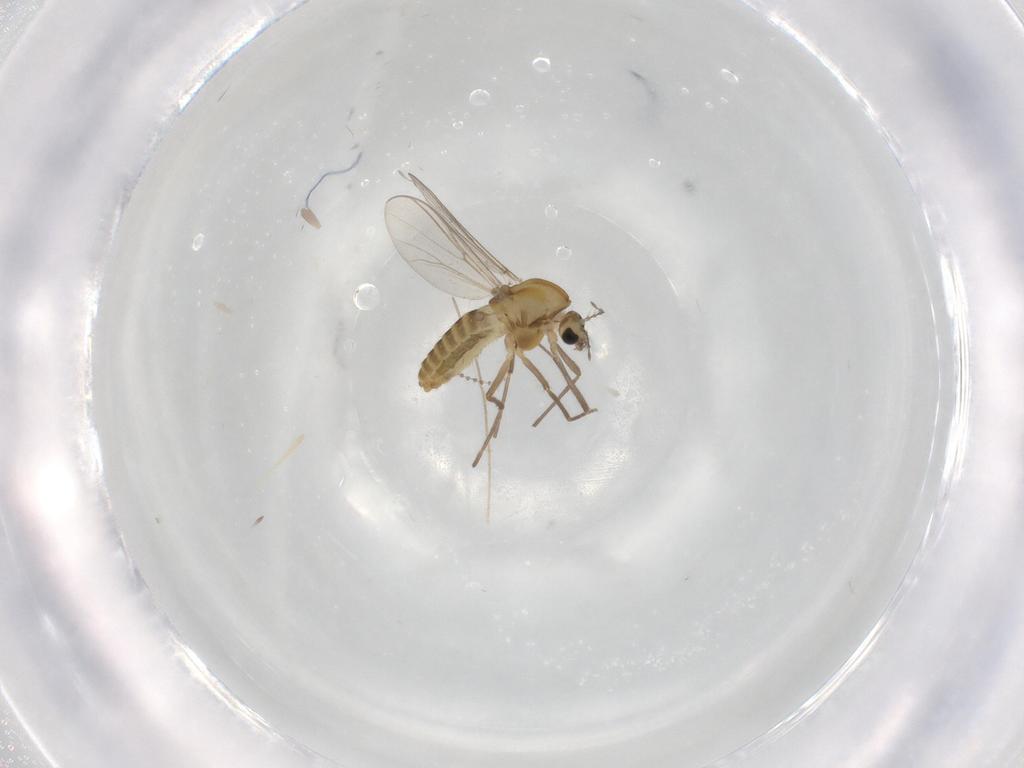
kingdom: Animalia
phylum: Arthropoda
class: Insecta
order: Diptera
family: Chironomidae
